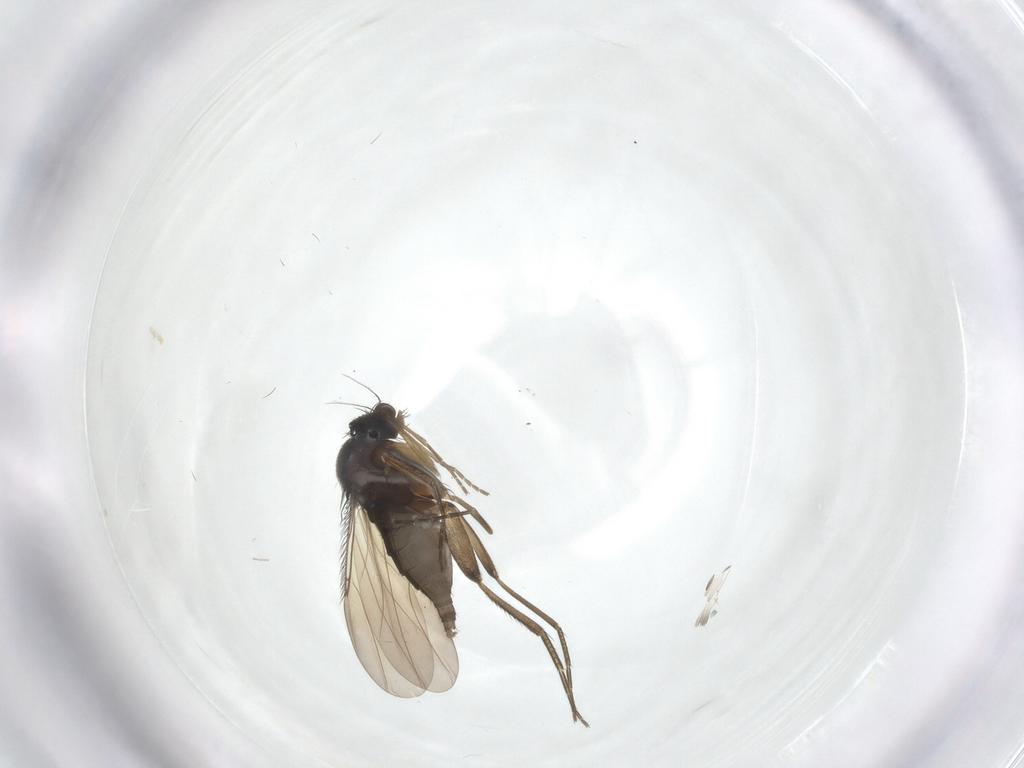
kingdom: Animalia
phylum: Arthropoda
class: Insecta
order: Diptera
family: Phoridae
